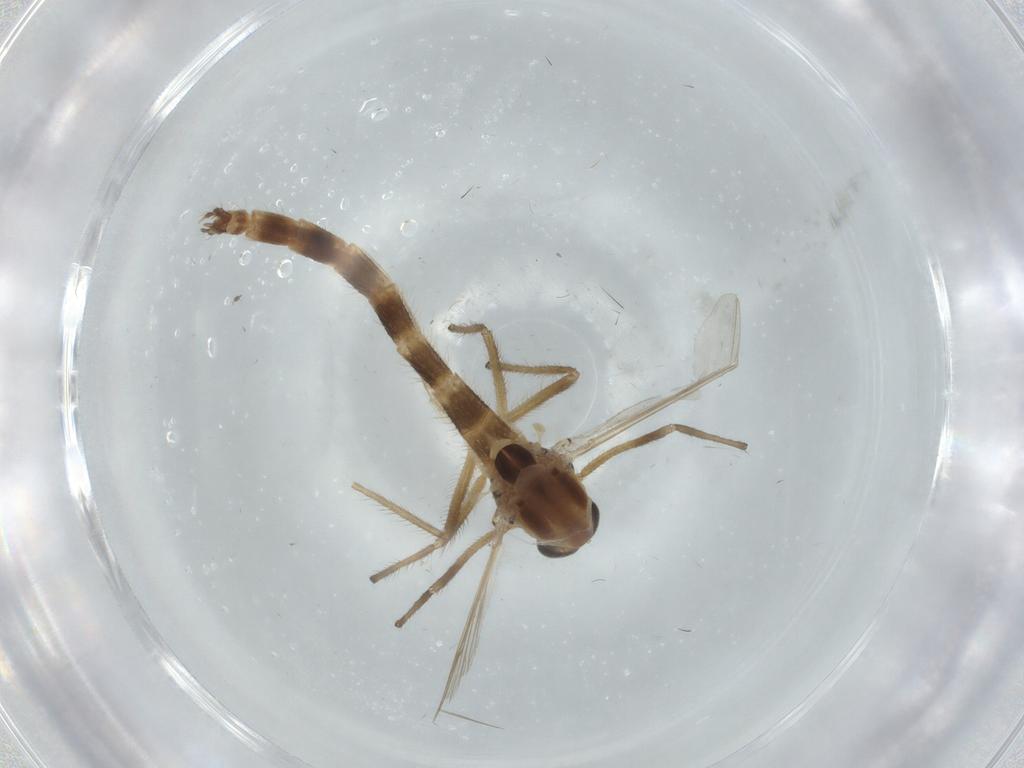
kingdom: Animalia
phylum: Arthropoda
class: Insecta
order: Diptera
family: Chironomidae
